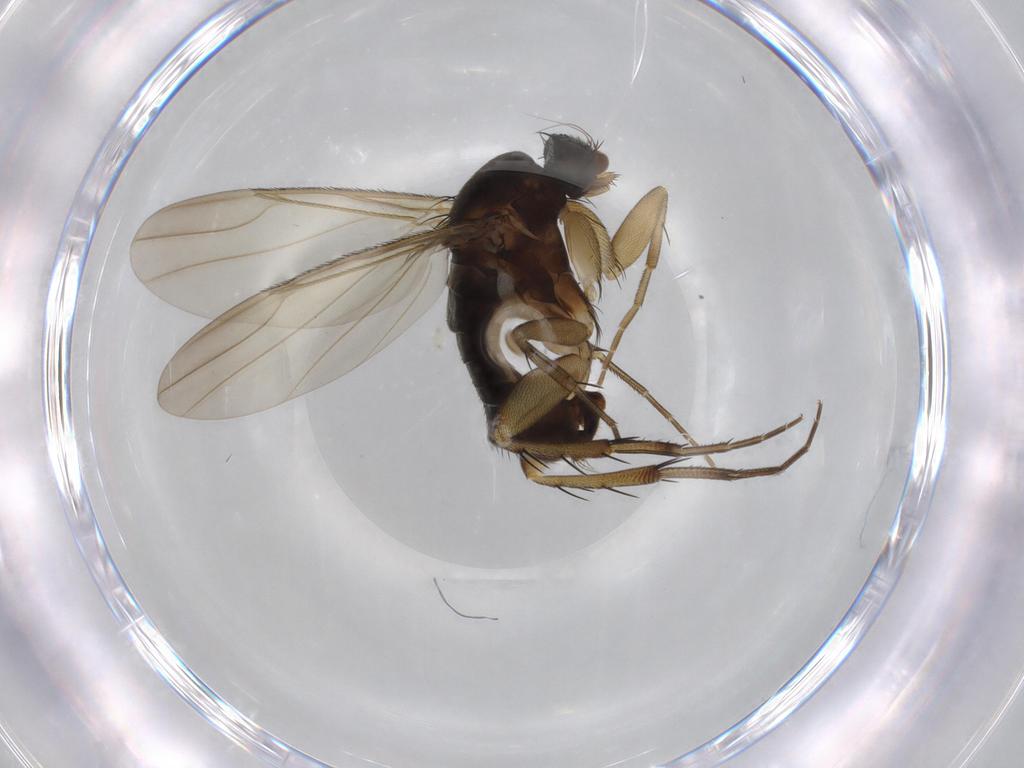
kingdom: Animalia
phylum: Arthropoda
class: Insecta
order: Diptera
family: Phoridae
